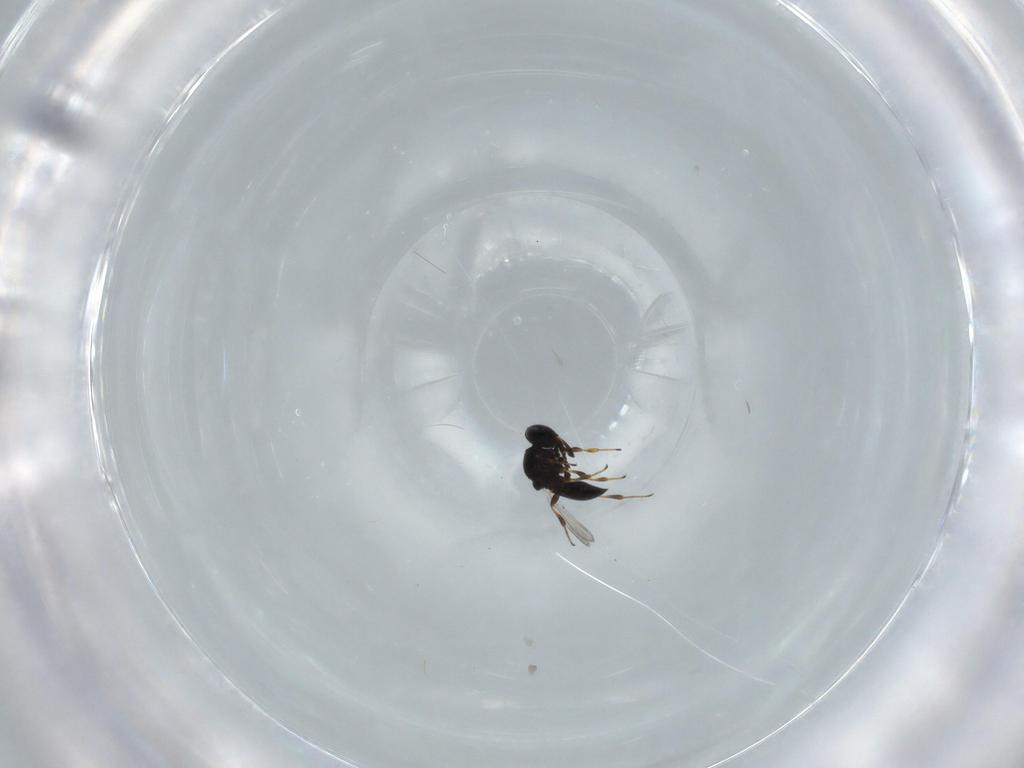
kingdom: Animalia
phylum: Arthropoda
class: Insecta
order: Hymenoptera
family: Platygastridae
